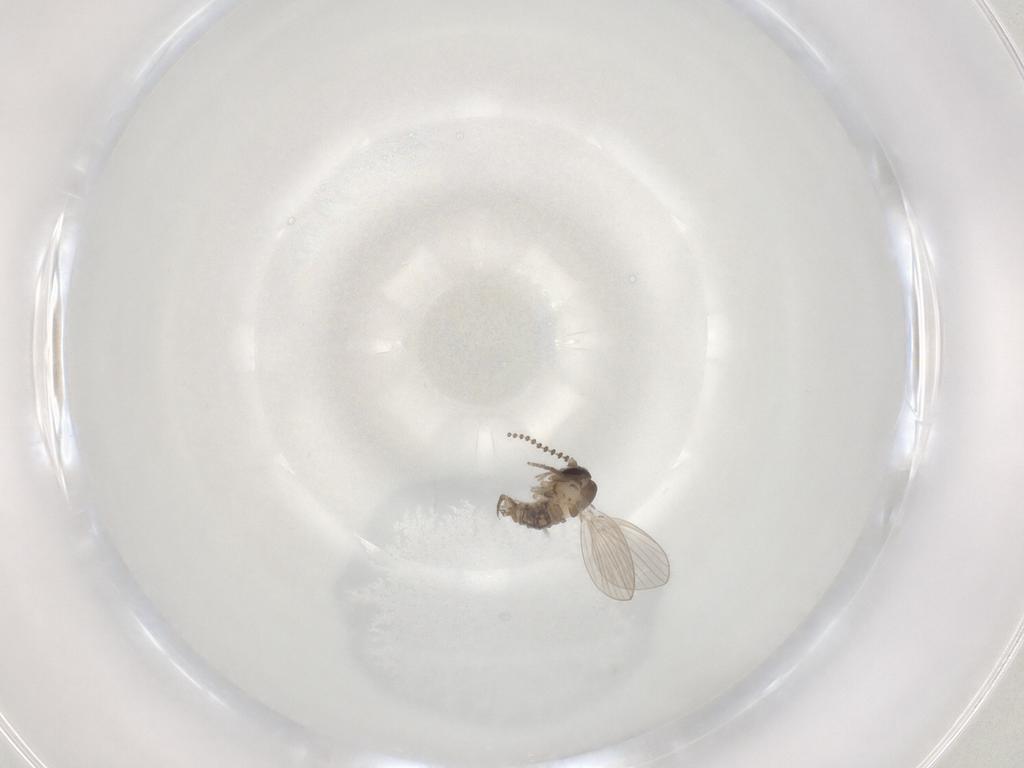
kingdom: Animalia
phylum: Arthropoda
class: Insecta
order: Diptera
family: Psychodidae
